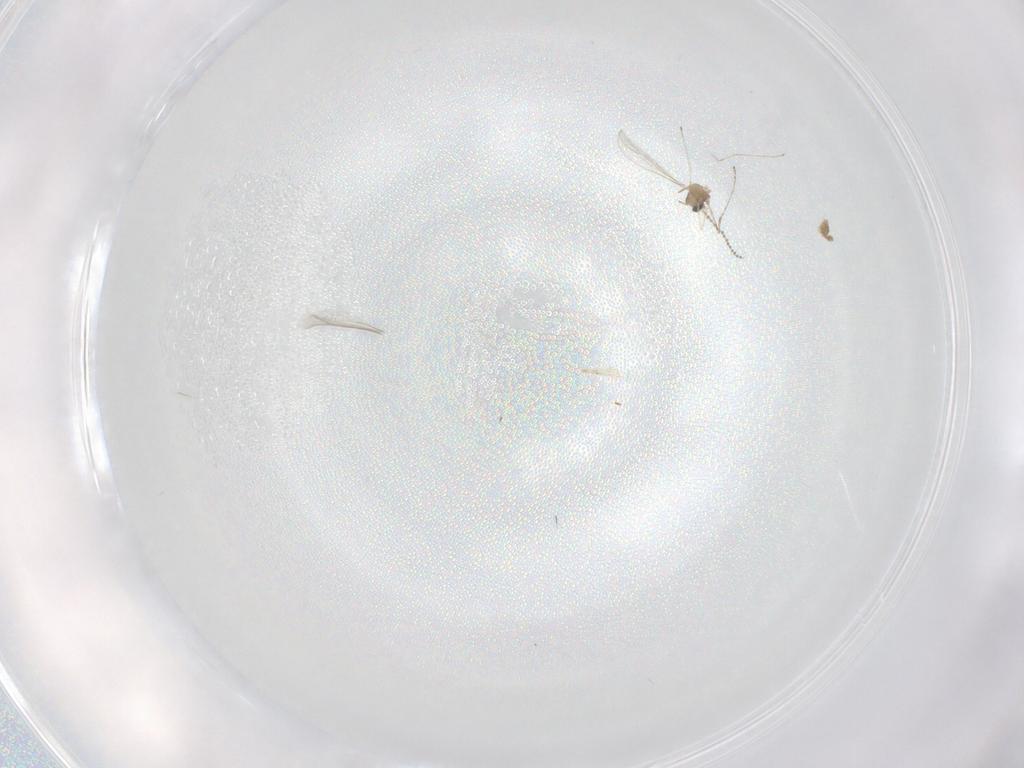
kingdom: Animalia
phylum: Arthropoda
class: Insecta
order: Diptera
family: Cecidomyiidae
